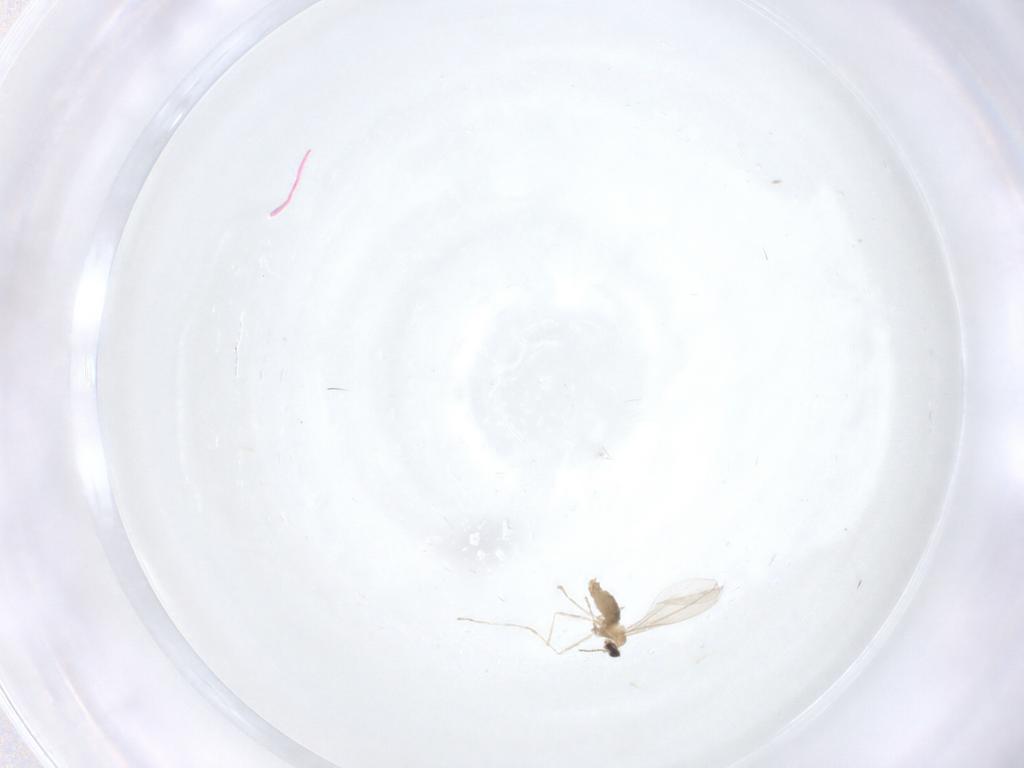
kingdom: Animalia
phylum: Arthropoda
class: Insecta
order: Diptera
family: Cecidomyiidae
